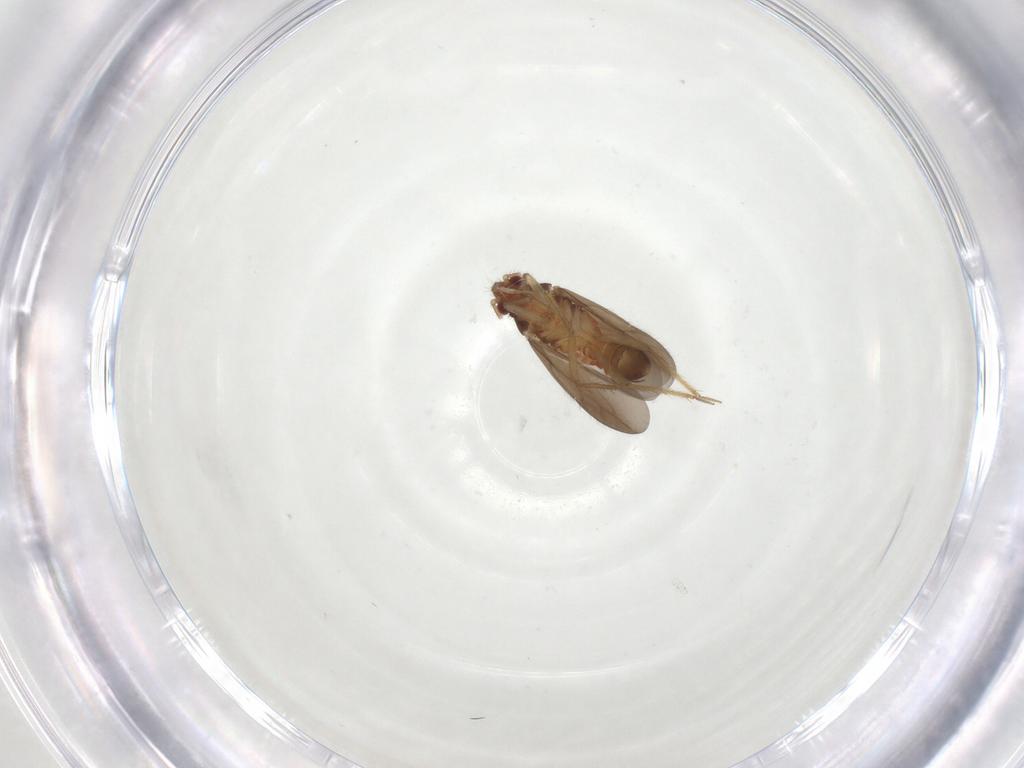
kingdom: Animalia
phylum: Arthropoda
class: Insecta
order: Hemiptera
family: Ceratocombidae
